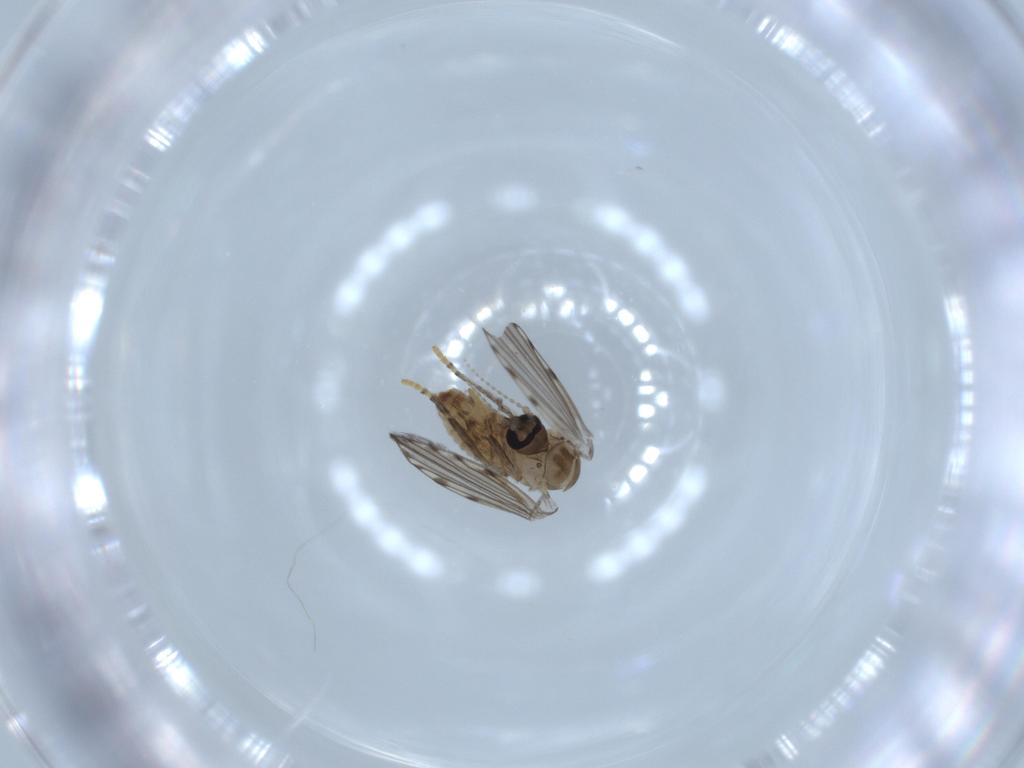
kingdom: Animalia
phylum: Arthropoda
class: Insecta
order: Diptera
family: Psychodidae
